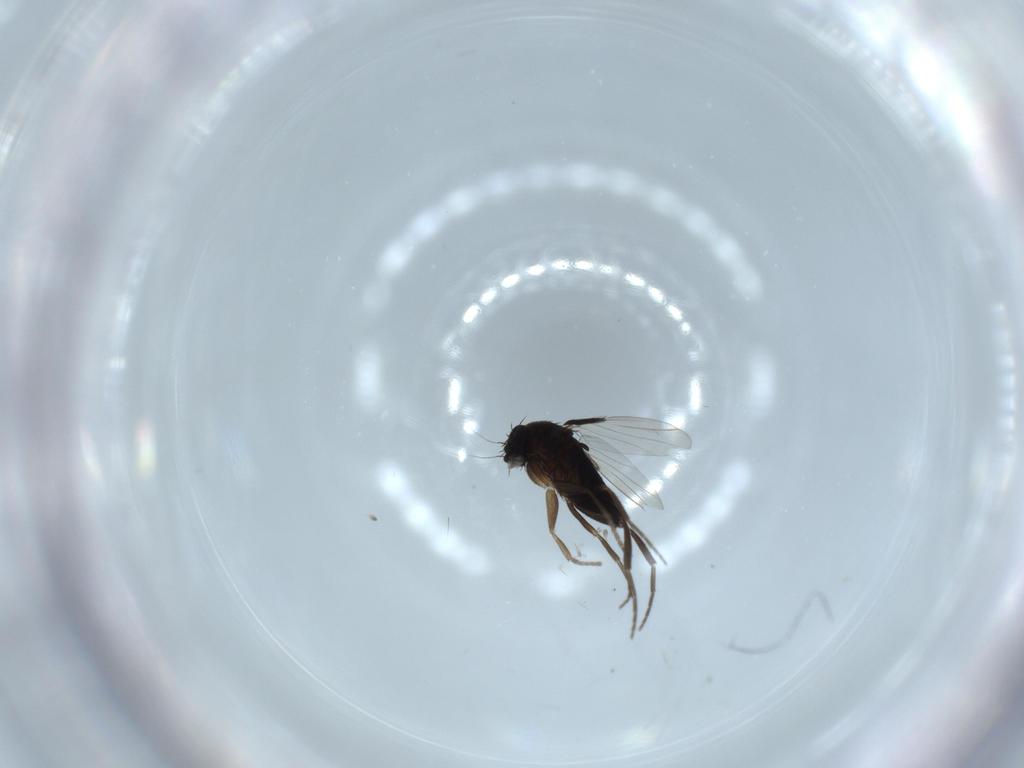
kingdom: Animalia
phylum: Arthropoda
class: Insecta
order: Diptera
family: Phoridae
